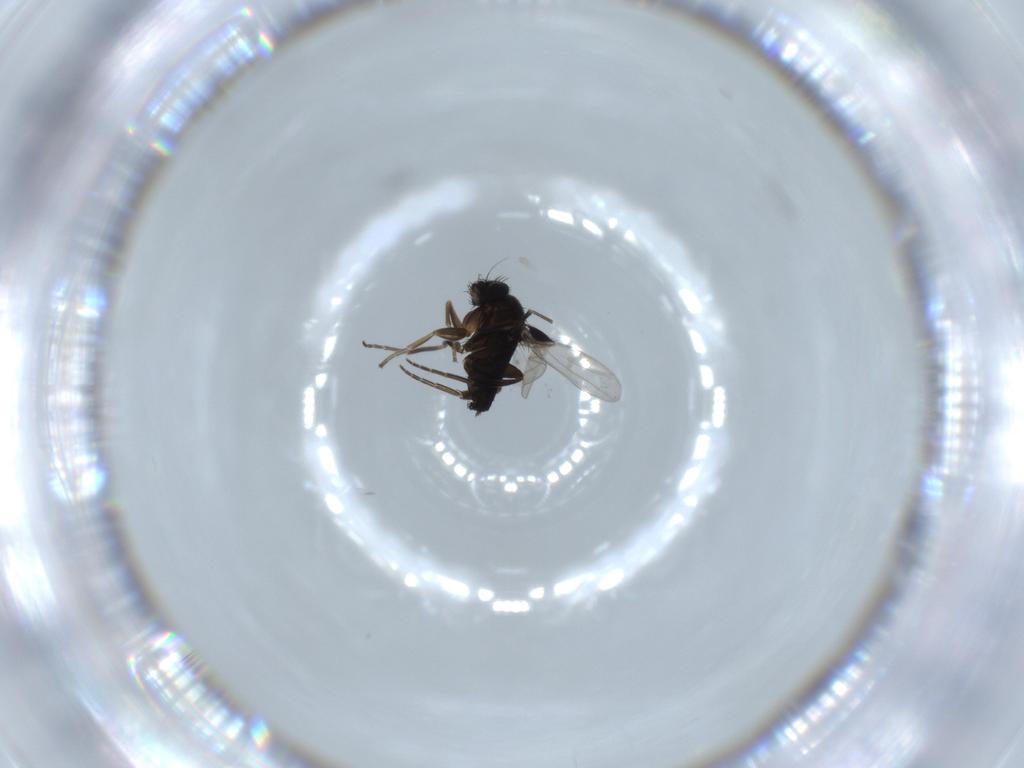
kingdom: Animalia
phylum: Arthropoda
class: Insecta
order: Diptera
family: Phoridae
